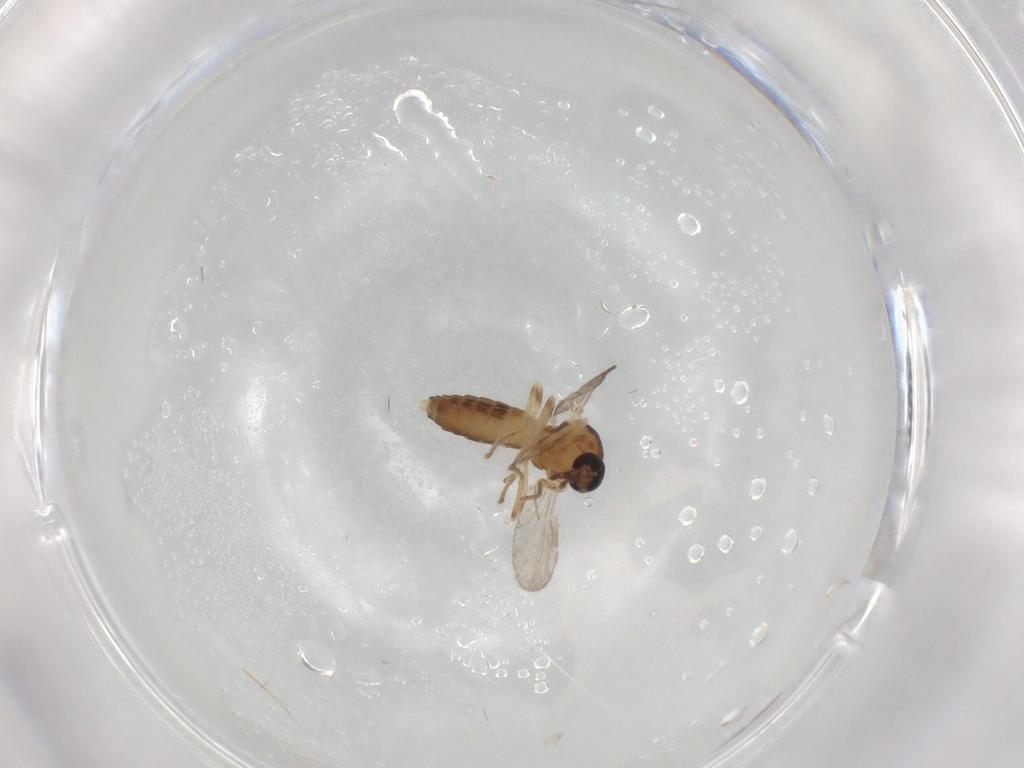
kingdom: Animalia
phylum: Arthropoda
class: Insecta
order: Diptera
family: Ceratopogonidae
